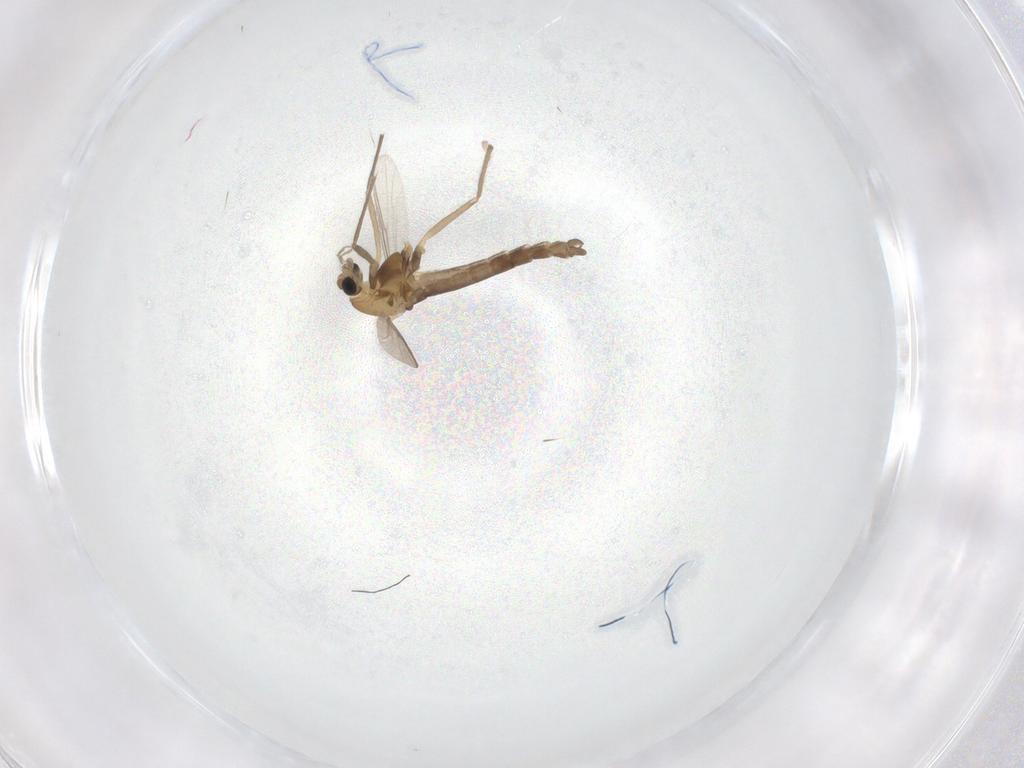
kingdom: Animalia
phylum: Arthropoda
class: Insecta
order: Diptera
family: Chironomidae
